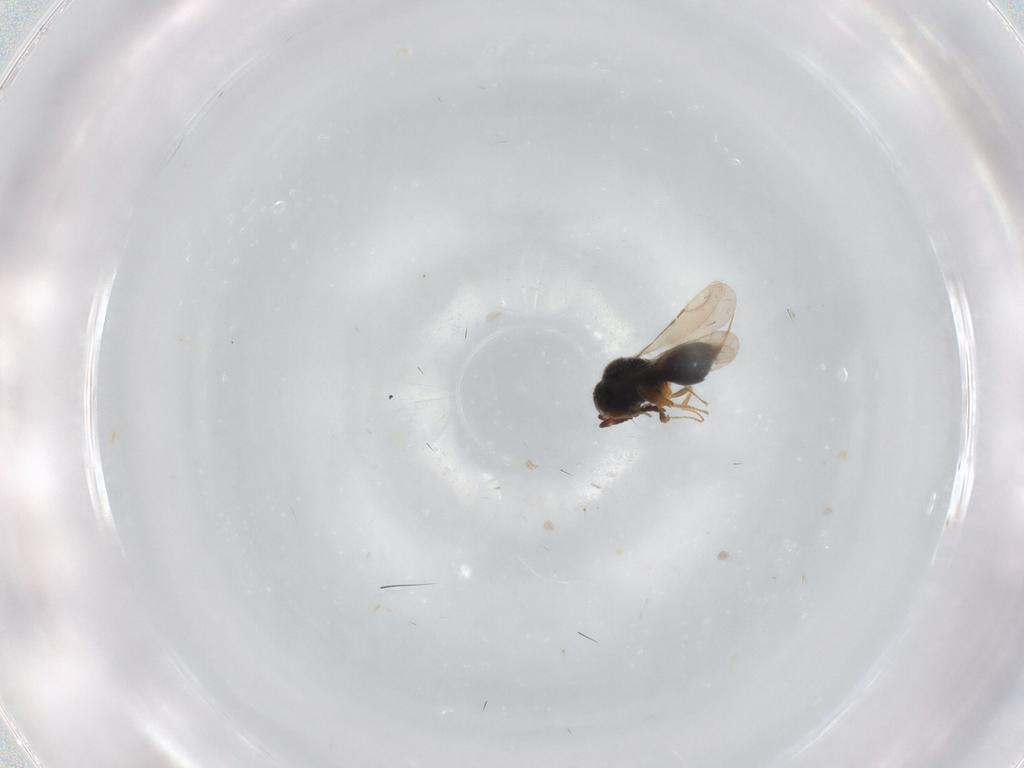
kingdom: Animalia
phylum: Arthropoda
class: Insecta
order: Hymenoptera
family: Ceraphronidae
